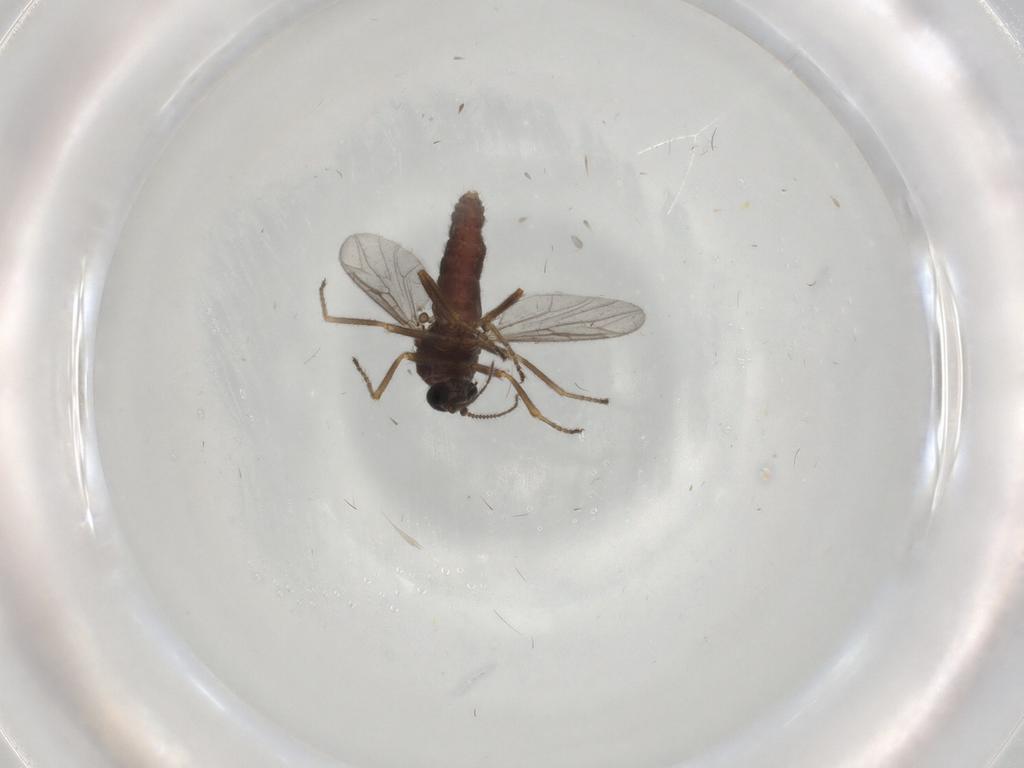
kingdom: Animalia
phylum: Arthropoda
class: Insecta
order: Diptera
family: Ceratopogonidae
